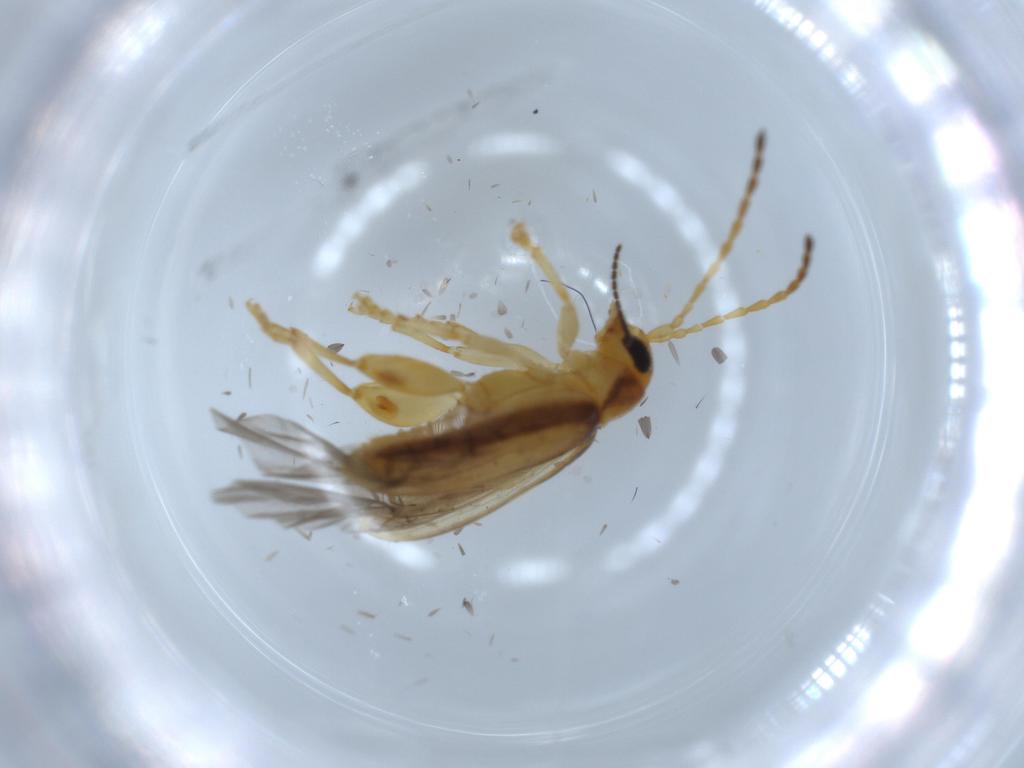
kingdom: Animalia
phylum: Arthropoda
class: Insecta
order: Coleoptera
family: Chrysomelidae
